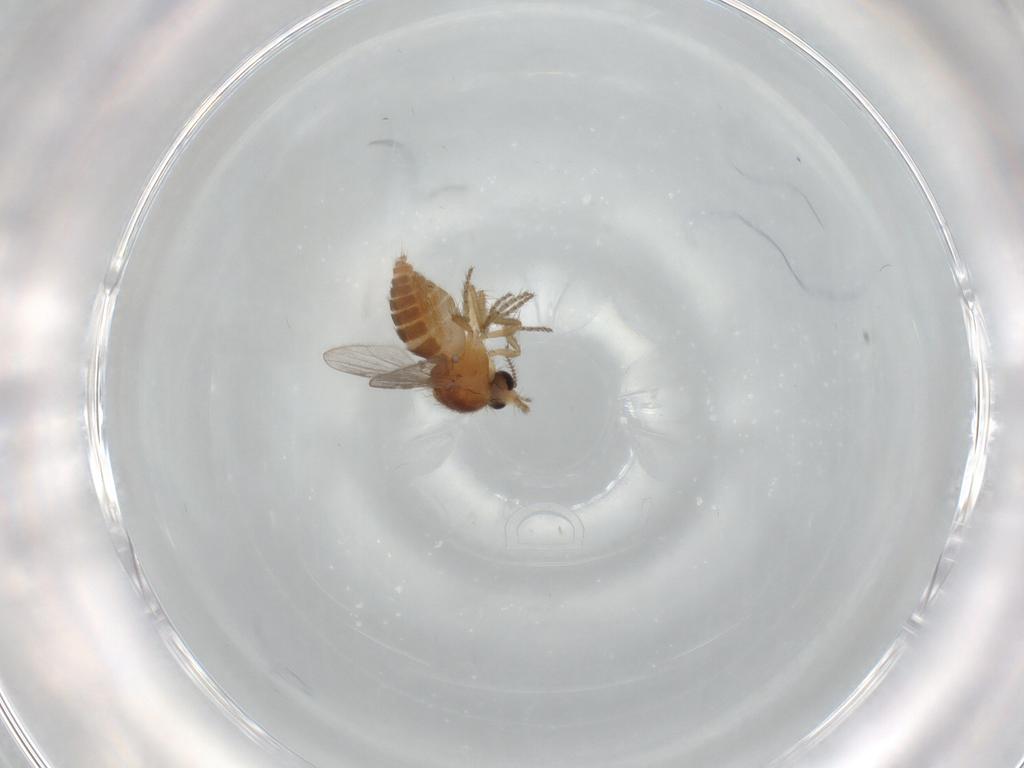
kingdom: Animalia
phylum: Arthropoda
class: Insecta
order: Diptera
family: Ceratopogonidae
